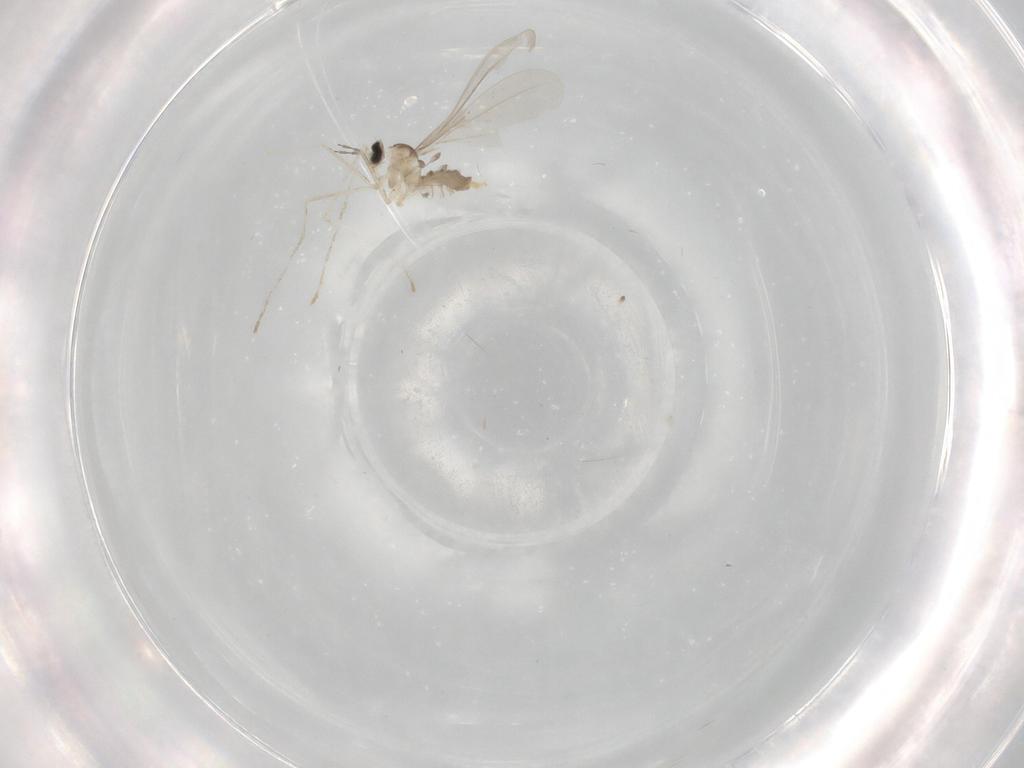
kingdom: Animalia
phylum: Arthropoda
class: Insecta
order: Diptera
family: Cecidomyiidae
